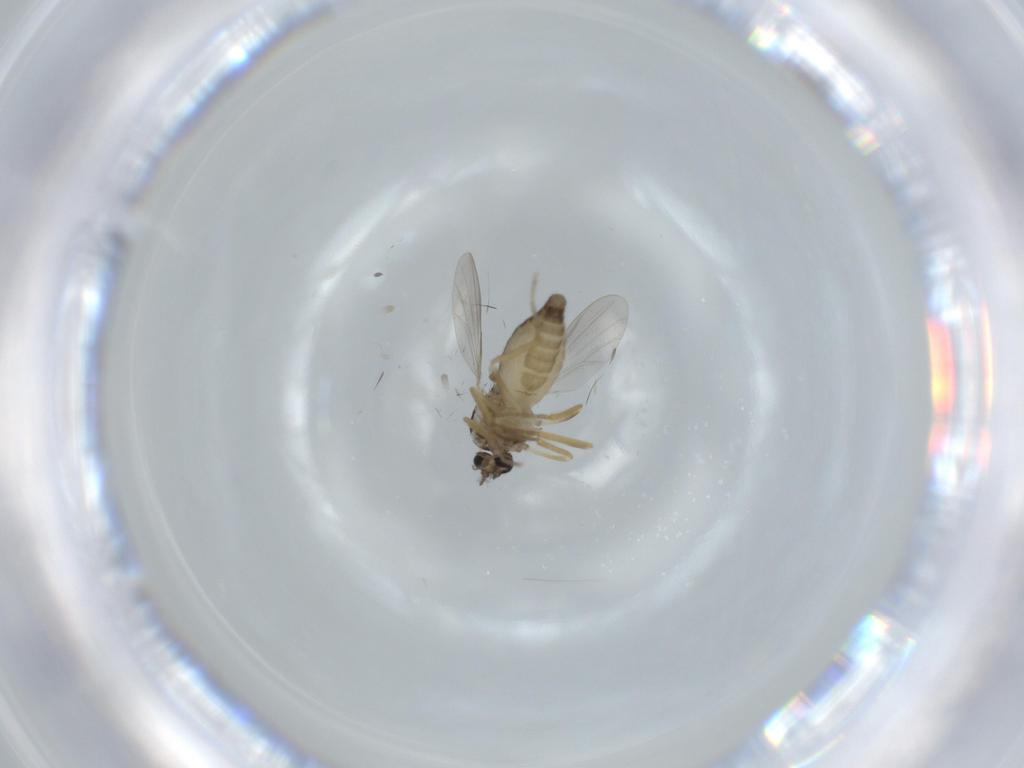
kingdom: Animalia
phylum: Arthropoda
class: Insecta
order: Diptera
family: Ceratopogonidae
